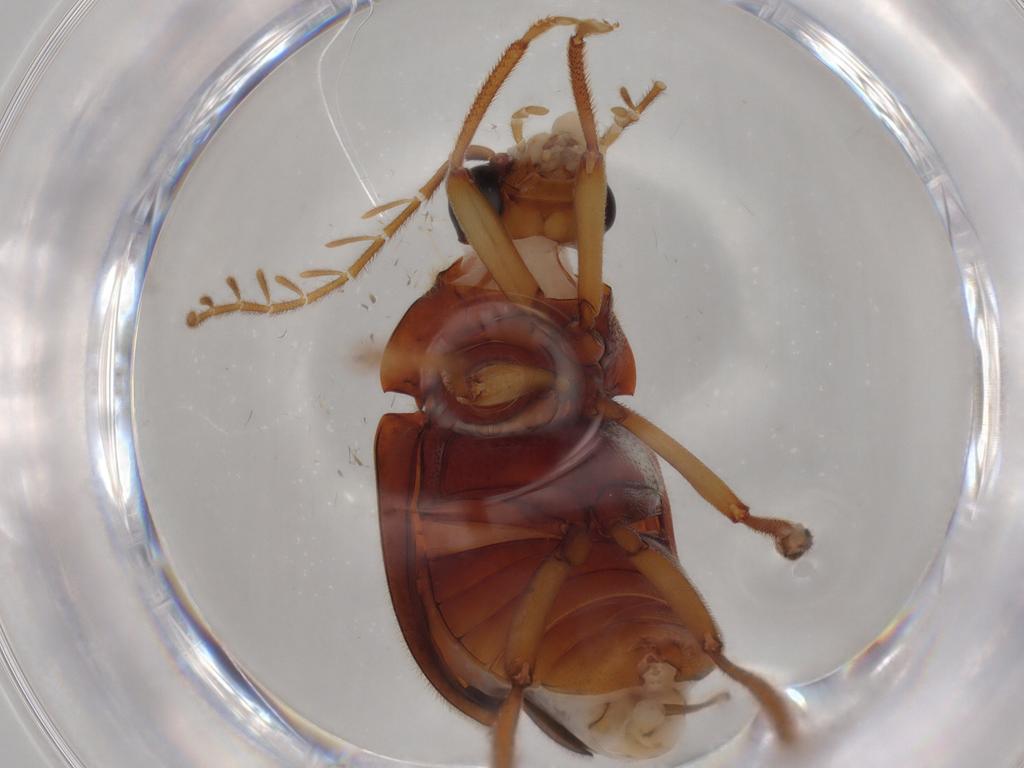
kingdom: Animalia
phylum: Arthropoda
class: Insecta
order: Coleoptera
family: Ptilodactylidae
